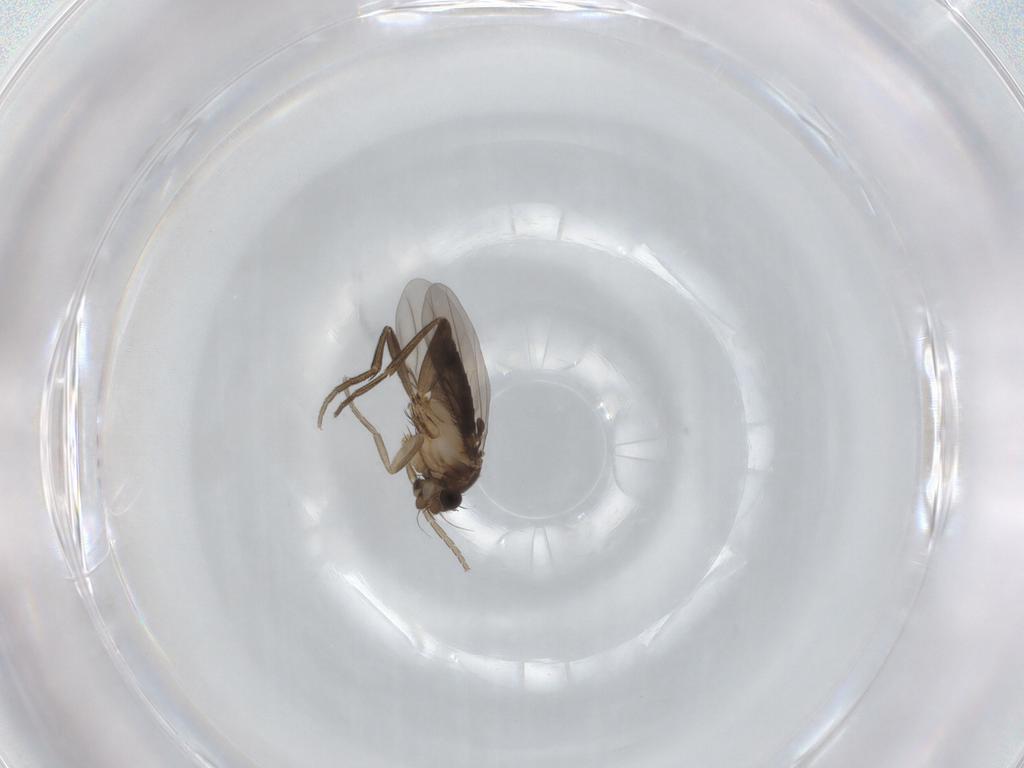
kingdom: Animalia
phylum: Arthropoda
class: Insecta
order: Diptera
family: Phoridae
